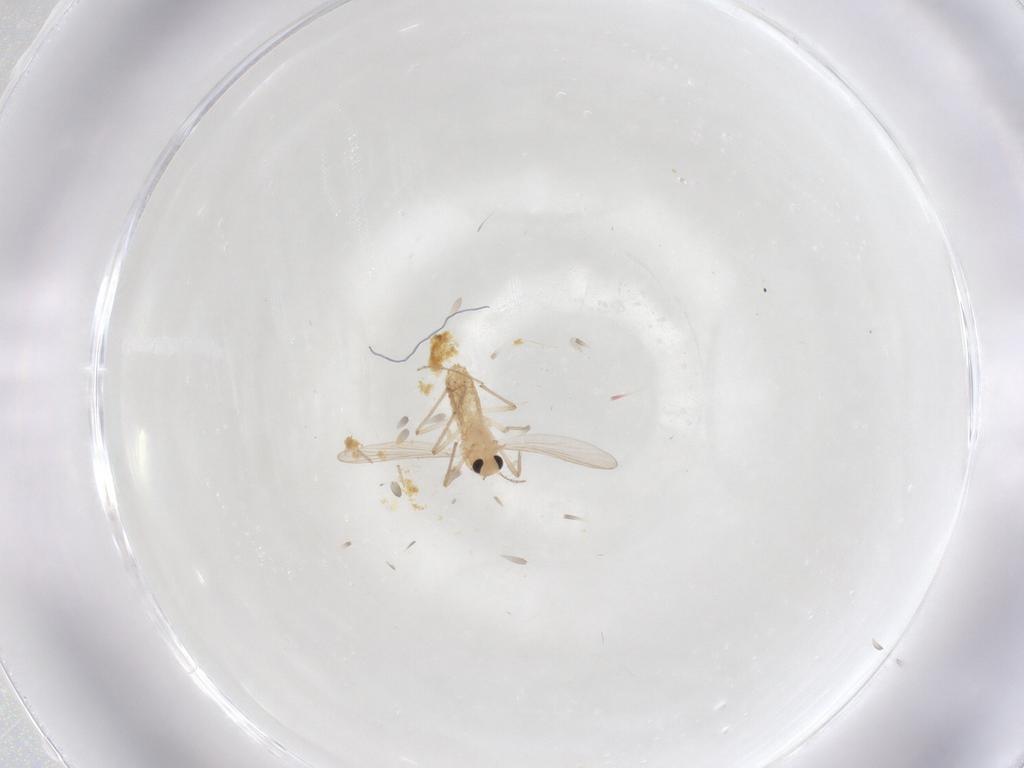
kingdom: Animalia
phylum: Arthropoda
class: Insecta
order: Diptera
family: Chironomidae
